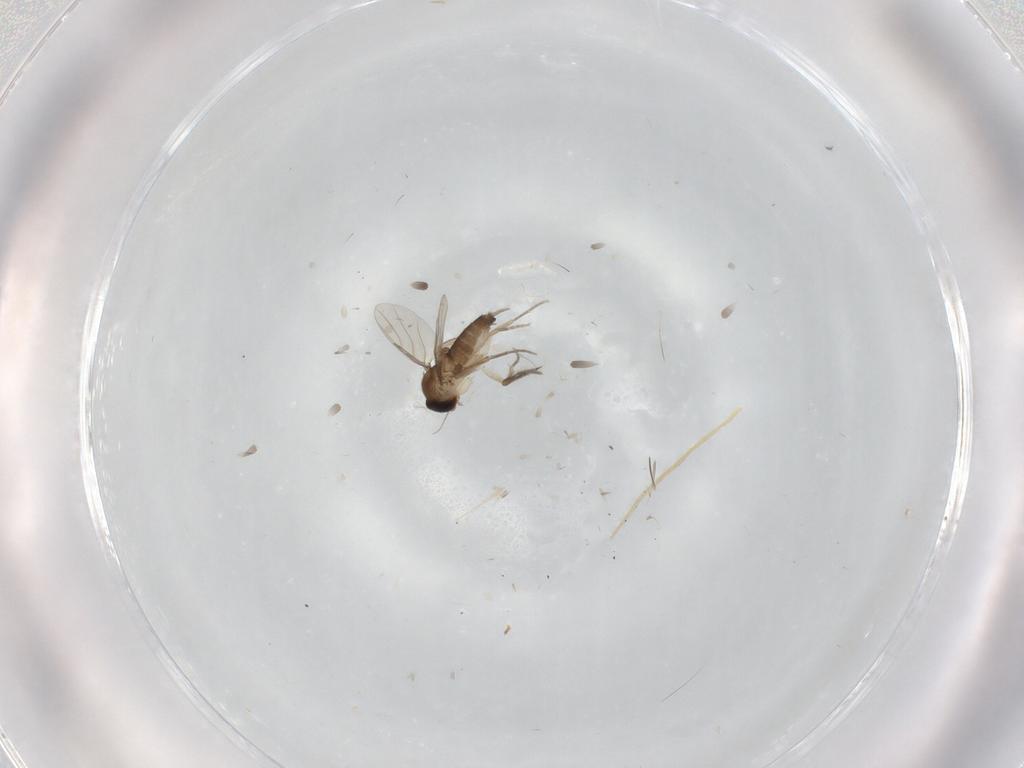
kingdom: Animalia
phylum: Arthropoda
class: Insecta
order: Diptera
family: Phoridae
